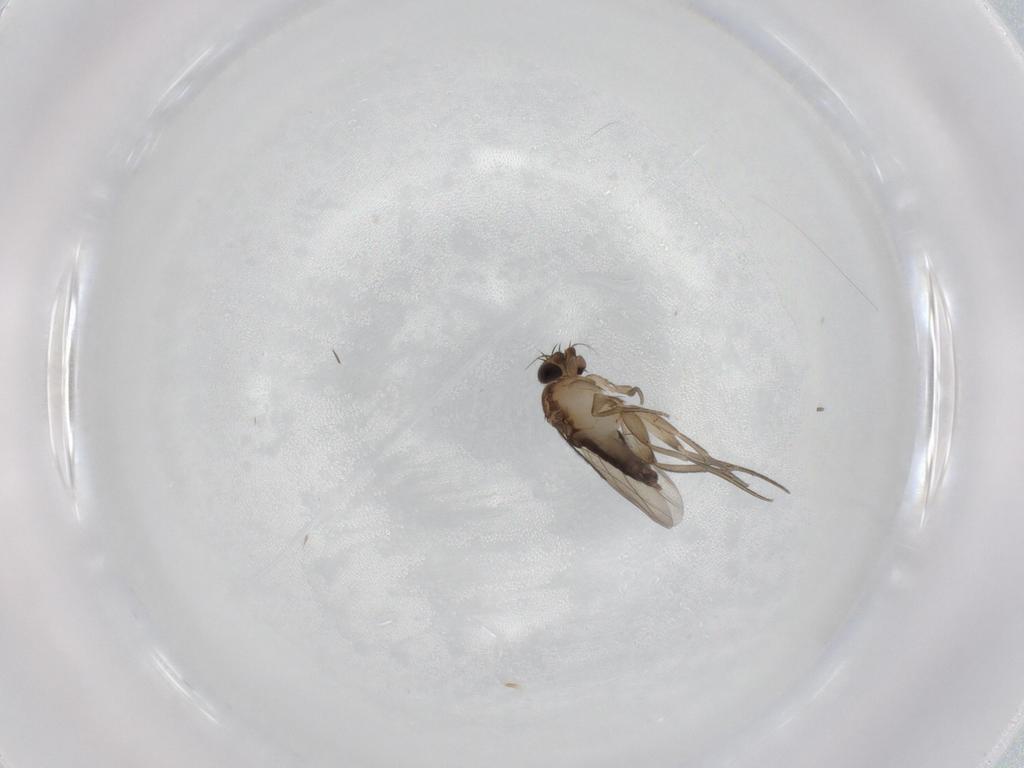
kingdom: Animalia
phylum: Arthropoda
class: Insecta
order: Diptera
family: Phoridae
